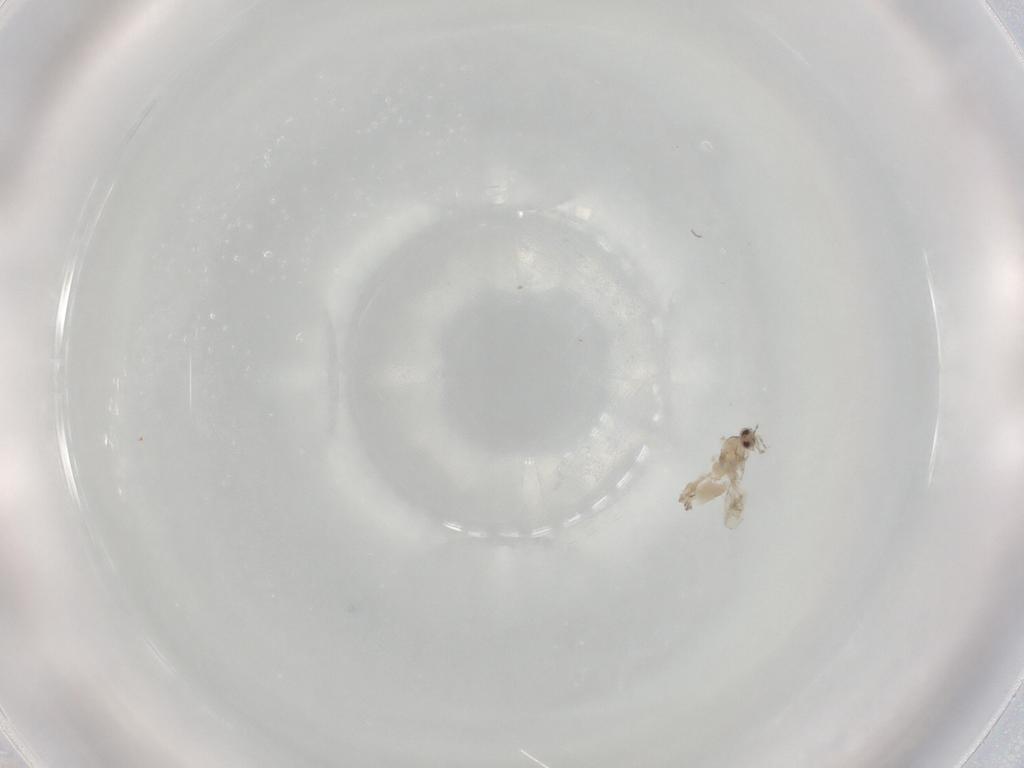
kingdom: Animalia
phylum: Arthropoda
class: Insecta
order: Diptera
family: Cecidomyiidae
